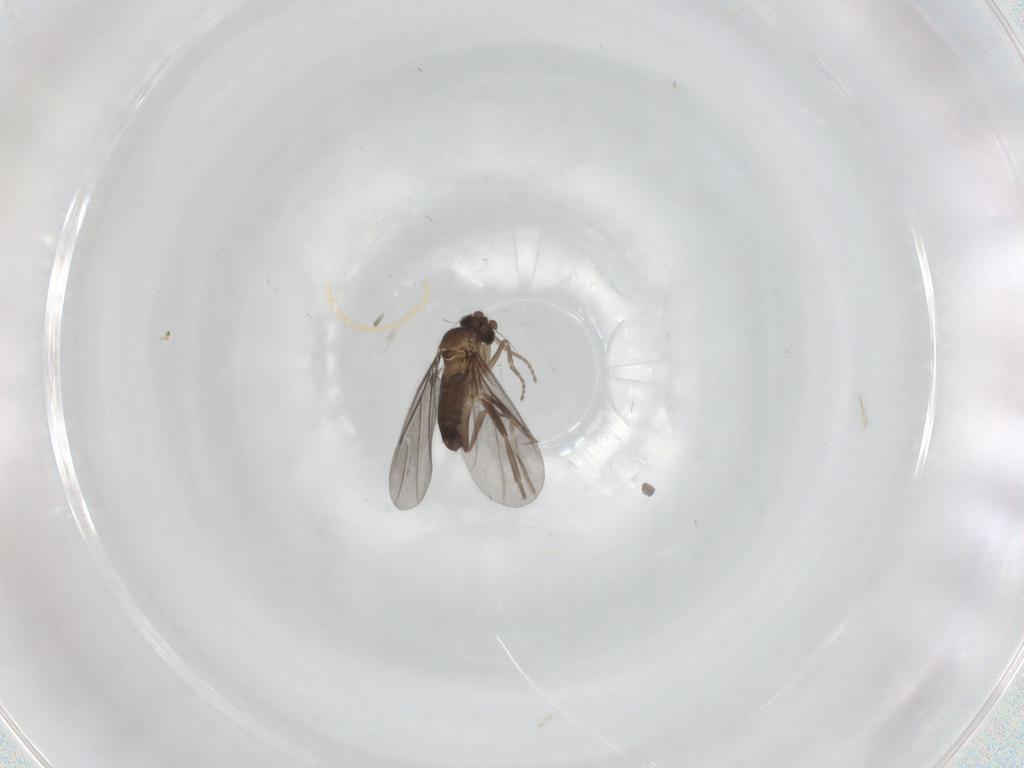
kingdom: Animalia
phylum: Arthropoda
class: Insecta
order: Diptera
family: Phoridae
